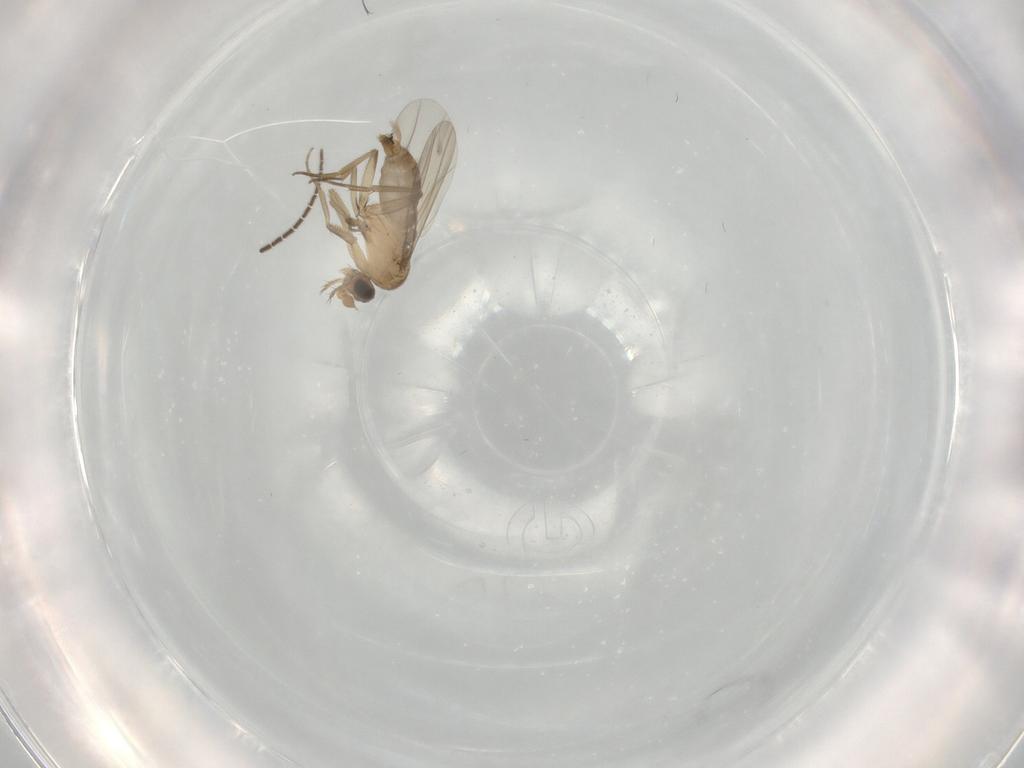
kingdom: Animalia
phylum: Arthropoda
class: Insecta
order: Diptera
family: Phoridae
